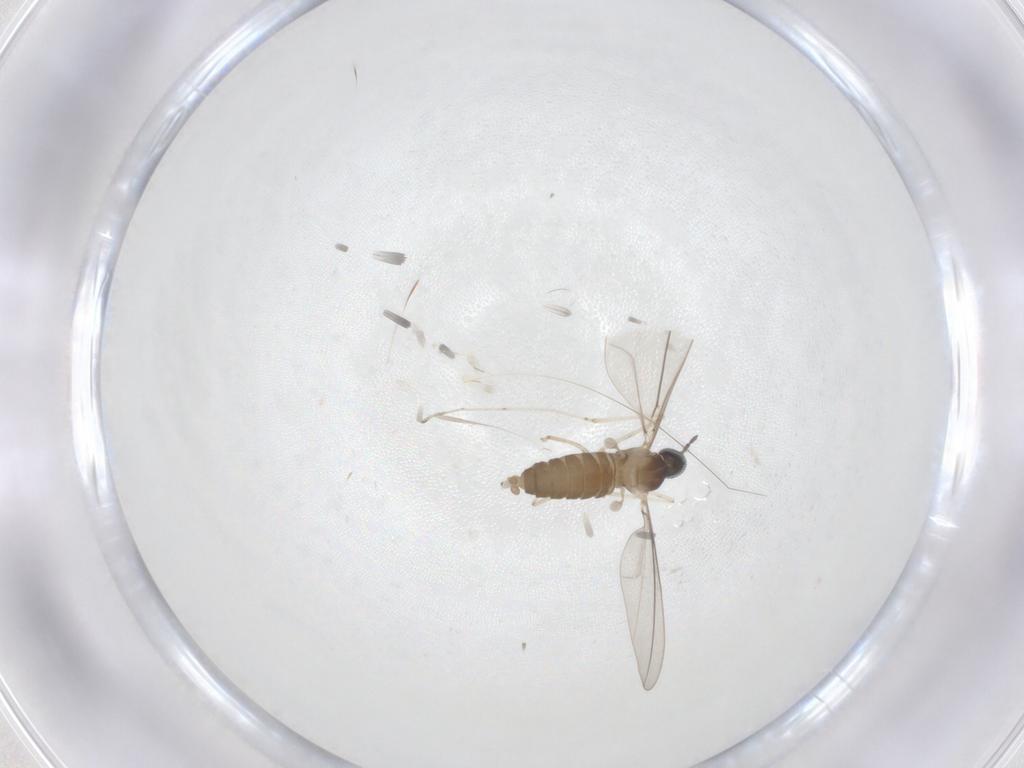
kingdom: Animalia
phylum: Arthropoda
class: Insecta
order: Diptera
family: Cecidomyiidae
